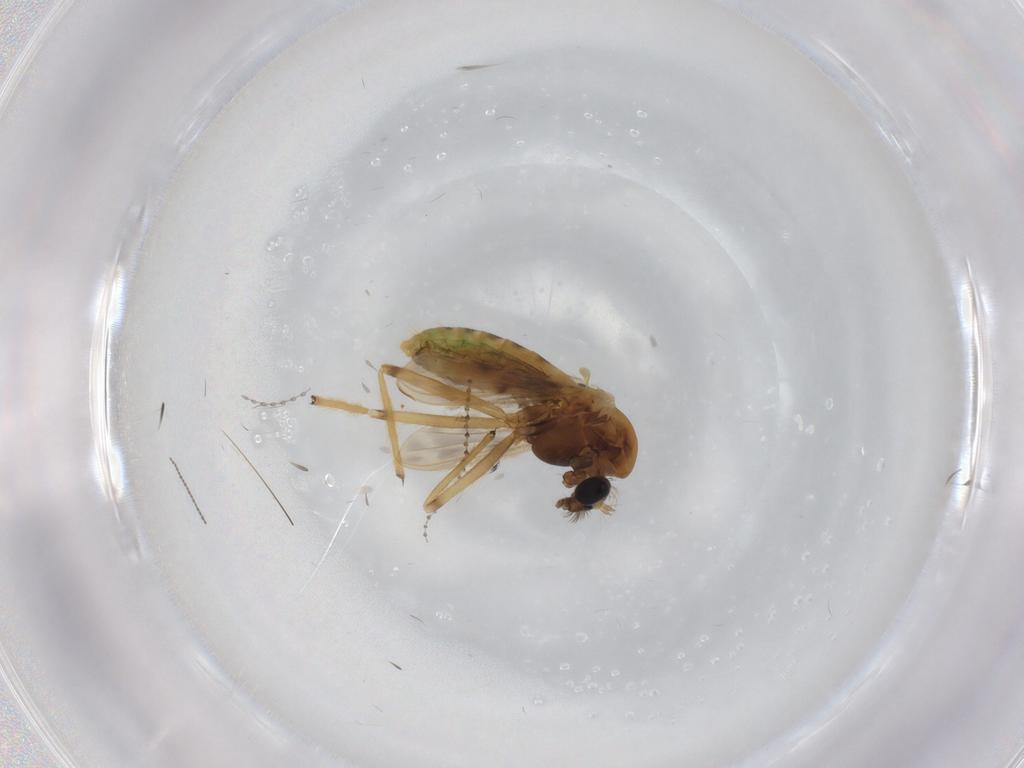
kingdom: Animalia
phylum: Arthropoda
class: Insecta
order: Diptera
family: Chironomidae
